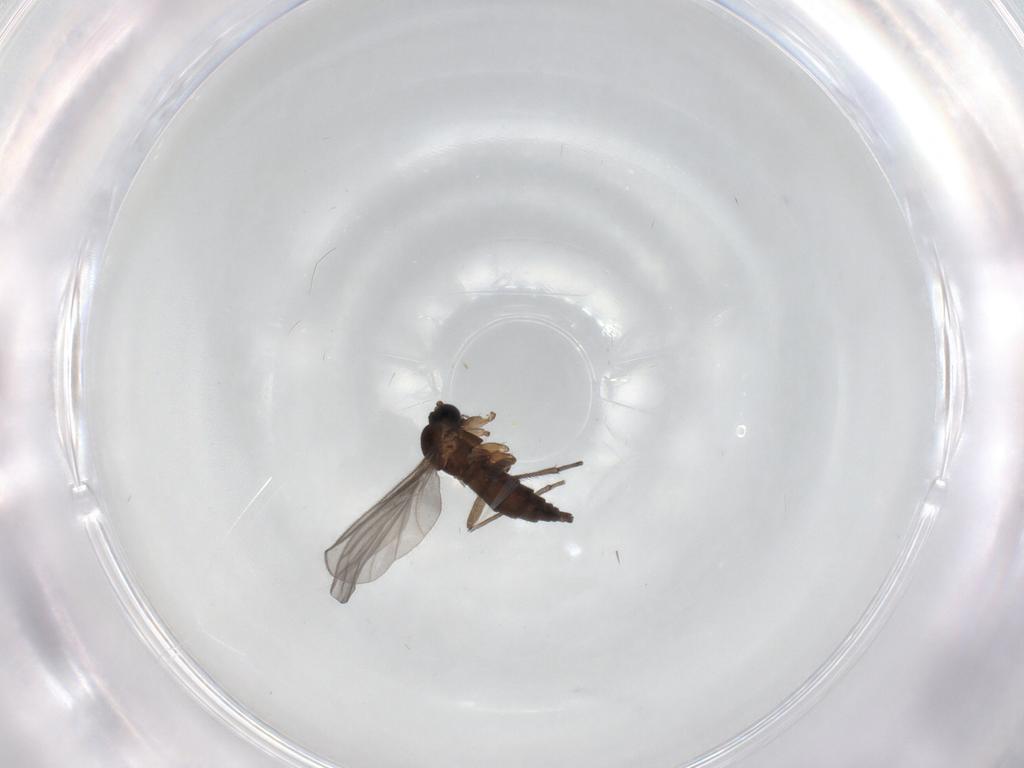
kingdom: Animalia
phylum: Arthropoda
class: Insecta
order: Diptera
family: Sciaridae
